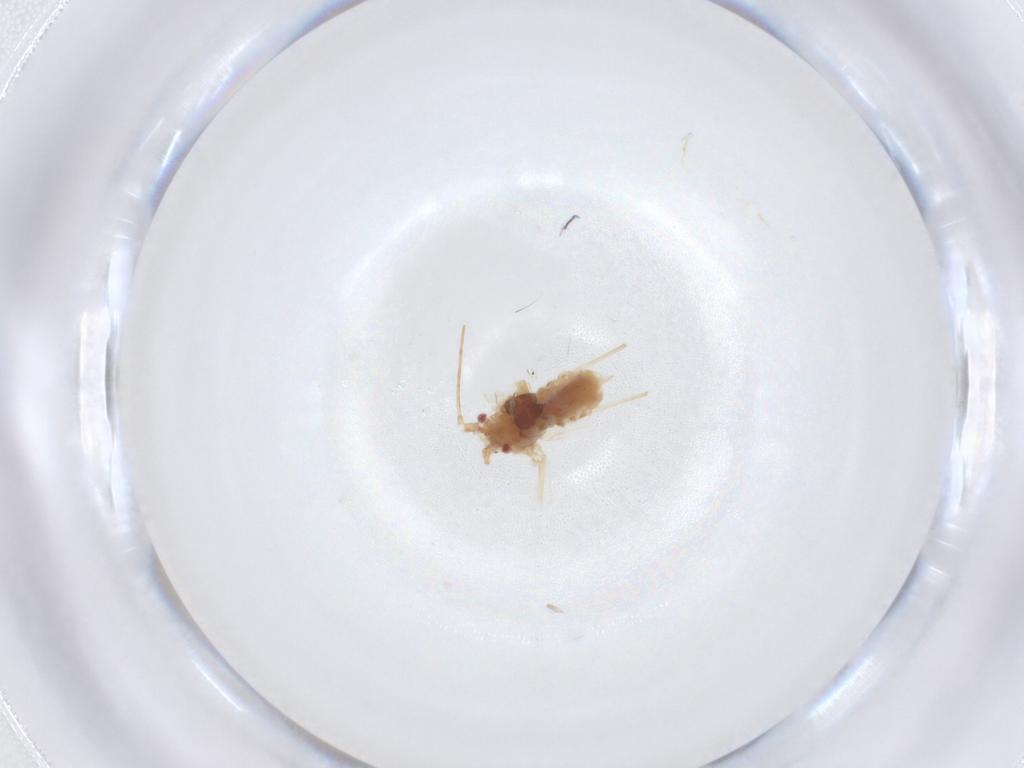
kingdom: Animalia
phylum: Arthropoda
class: Insecta
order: Hemiptera
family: Aphididae
